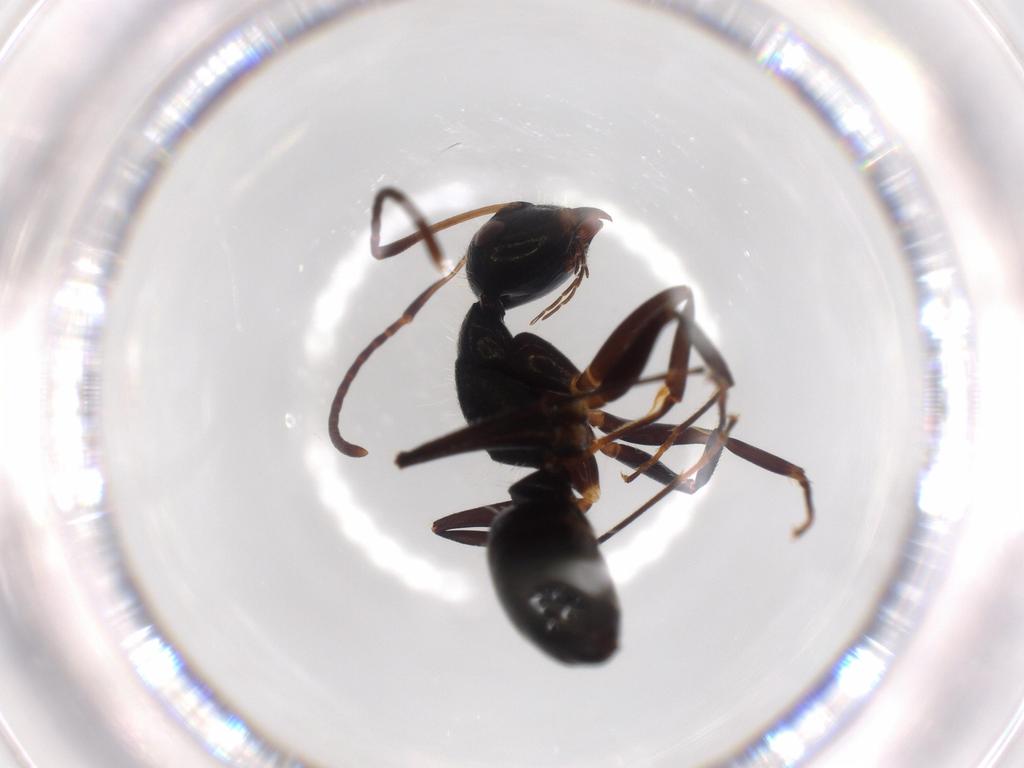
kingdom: Animalia
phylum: Arthropoda
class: Insecta
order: Hymenoptera
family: Formicidae
